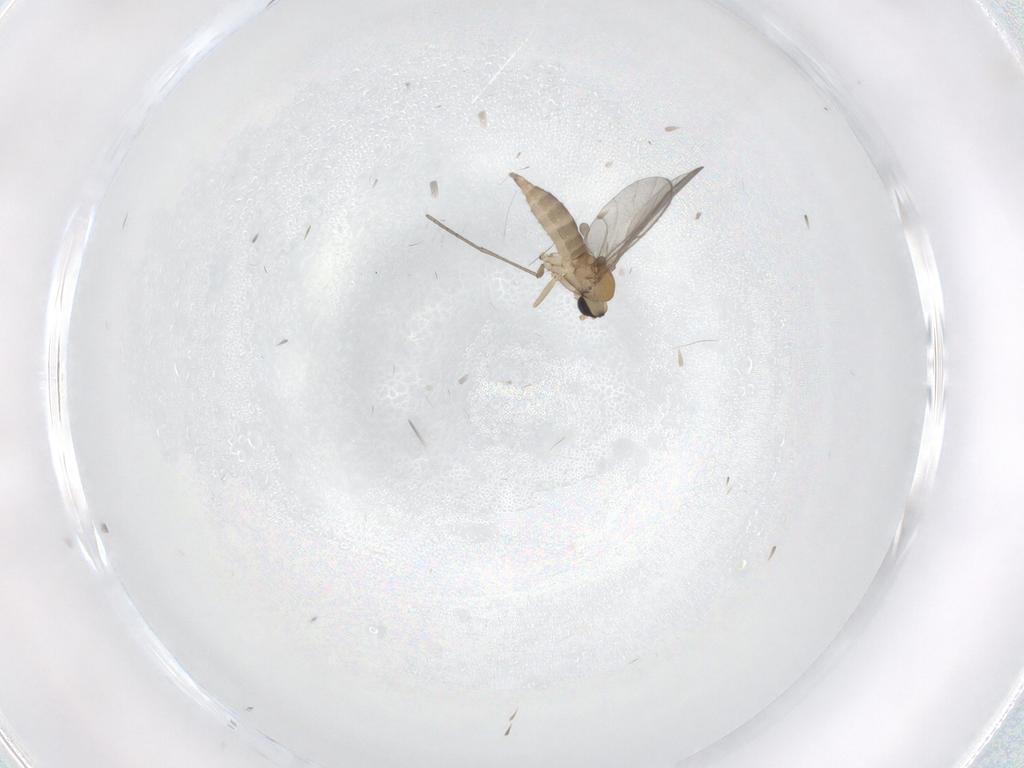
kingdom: Animalia
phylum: Arthropoda
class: Insecta
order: Diptera
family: Sciaridae
